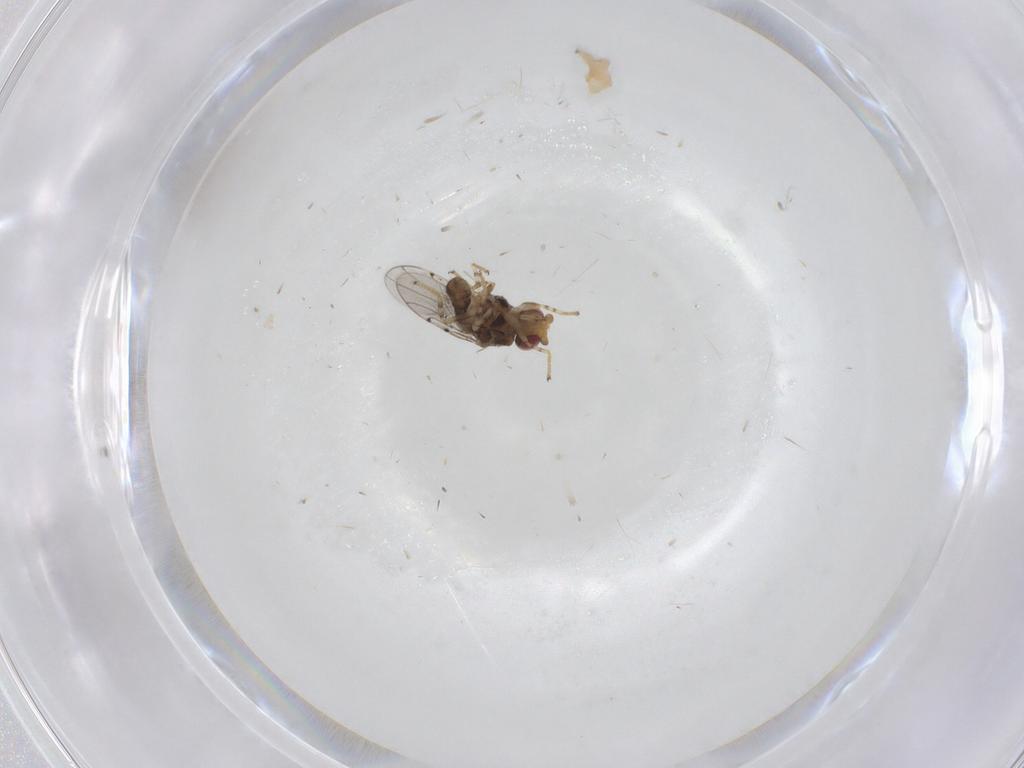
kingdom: Animalia
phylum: Arthropoda
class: Insecta
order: Diptera
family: Chloropidae
